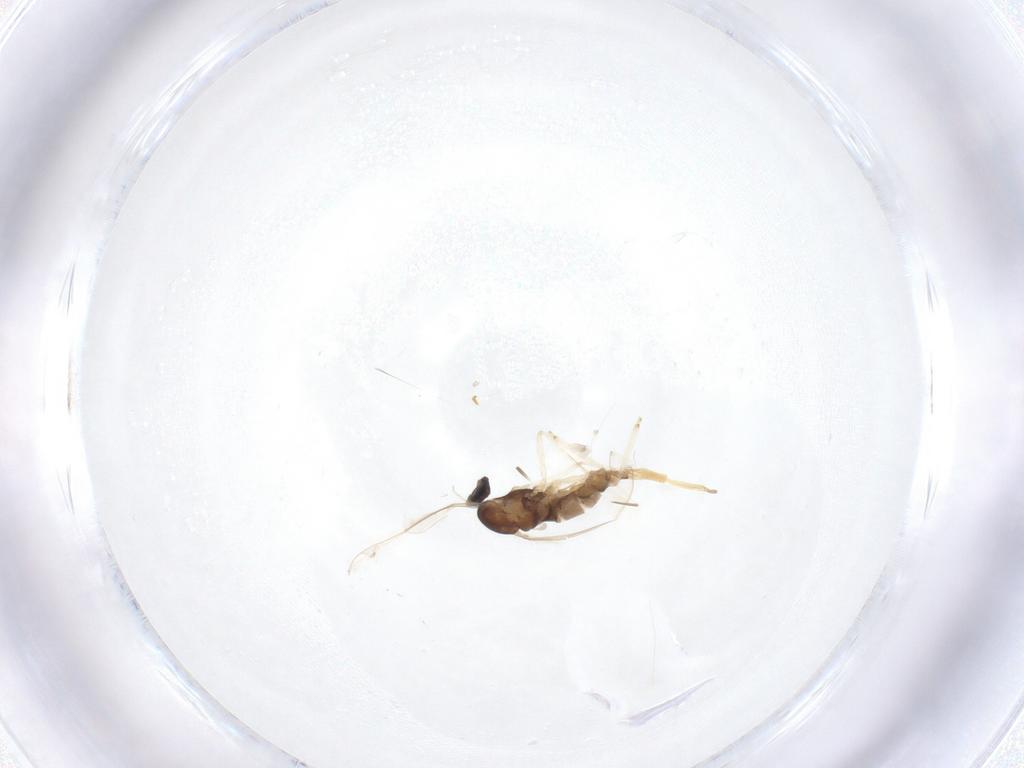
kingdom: Animalia
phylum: Arthropoda
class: Insecta
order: Diptera
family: Cecidomyiidae
